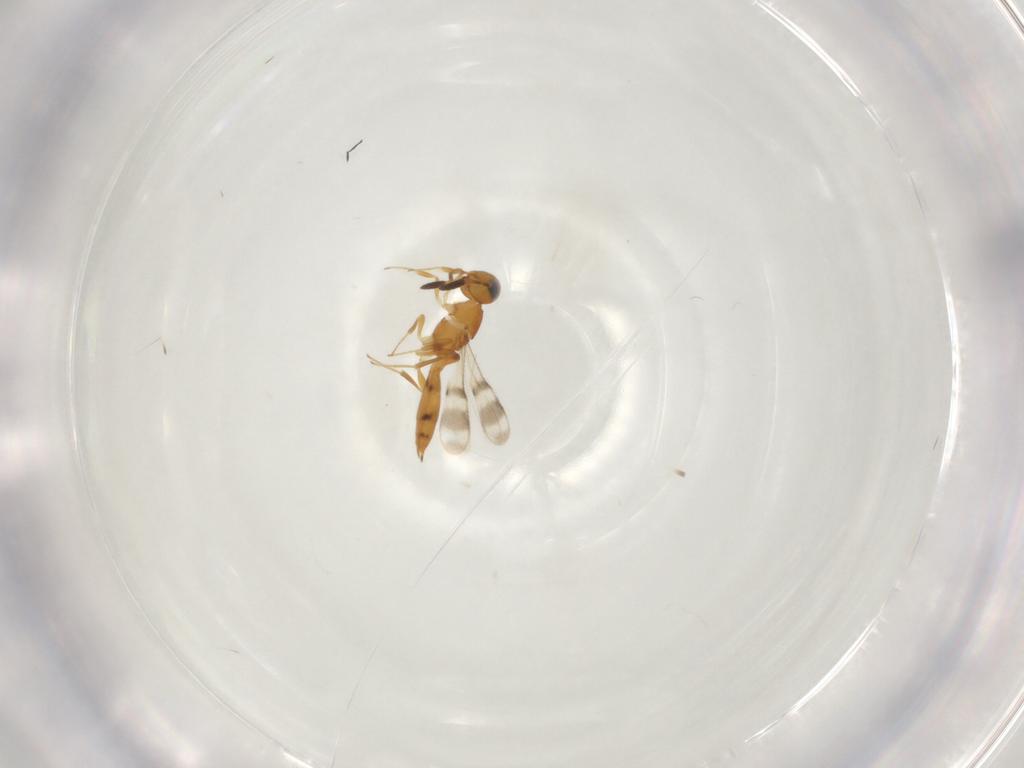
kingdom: Animalia
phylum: Arthropoda
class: Insecta
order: Hymenoptera
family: Scelionidae
